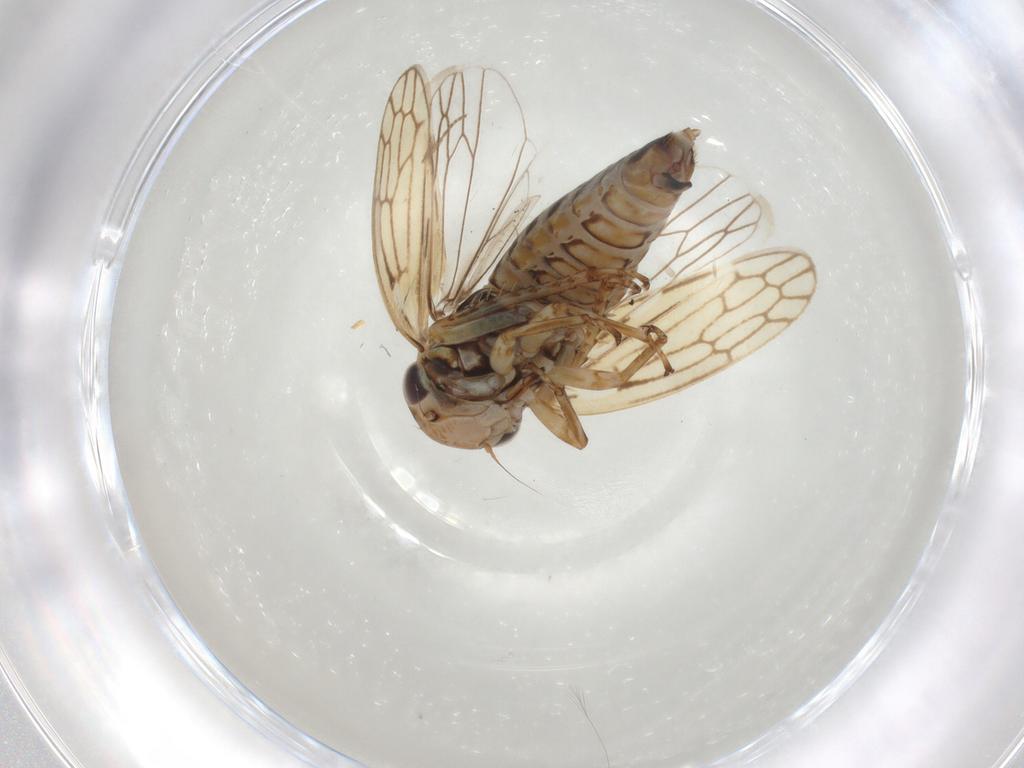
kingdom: Animalia
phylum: Arthropoda
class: Insecta
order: Hemiptera
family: Cicadellidae
